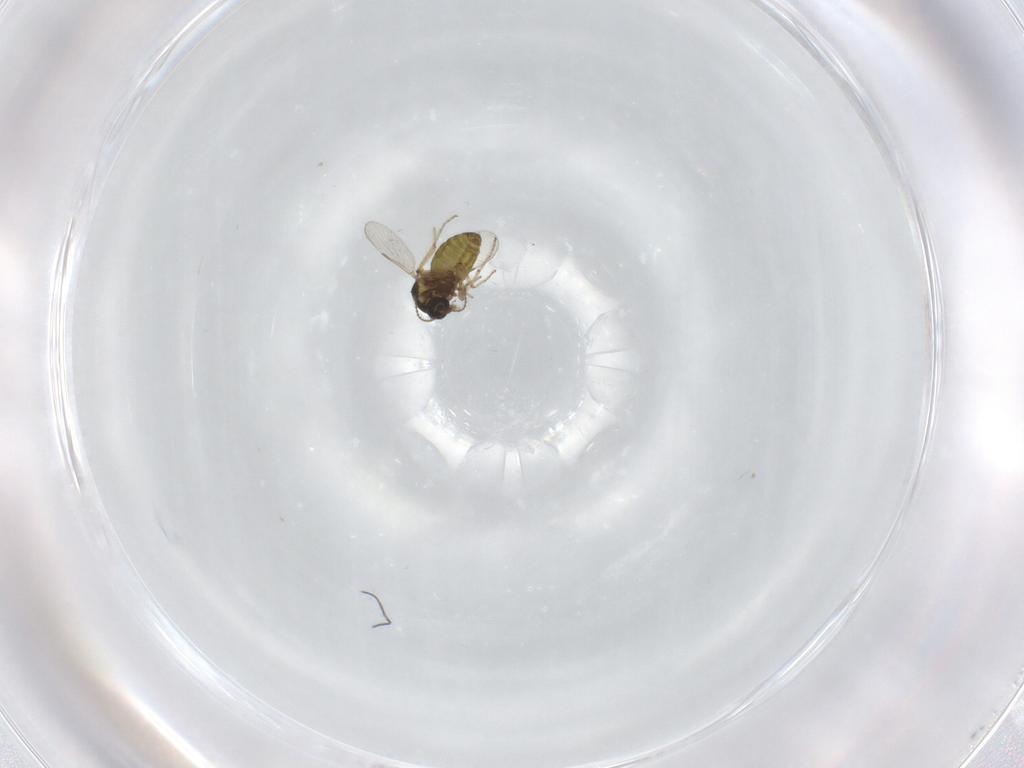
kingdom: Animalia
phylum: Arthropoda
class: Insecta
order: Diptera
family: Ceratopogonidae
